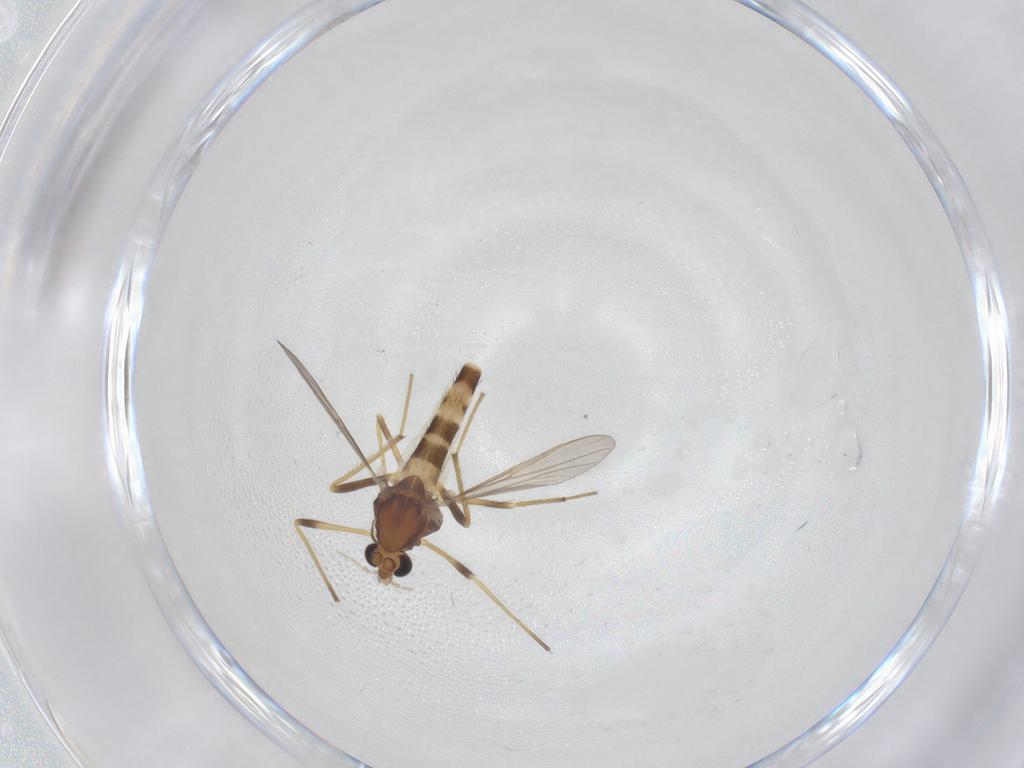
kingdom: Animalia
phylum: Arthropoda
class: Insecta
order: Diptera
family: Chironomidae
